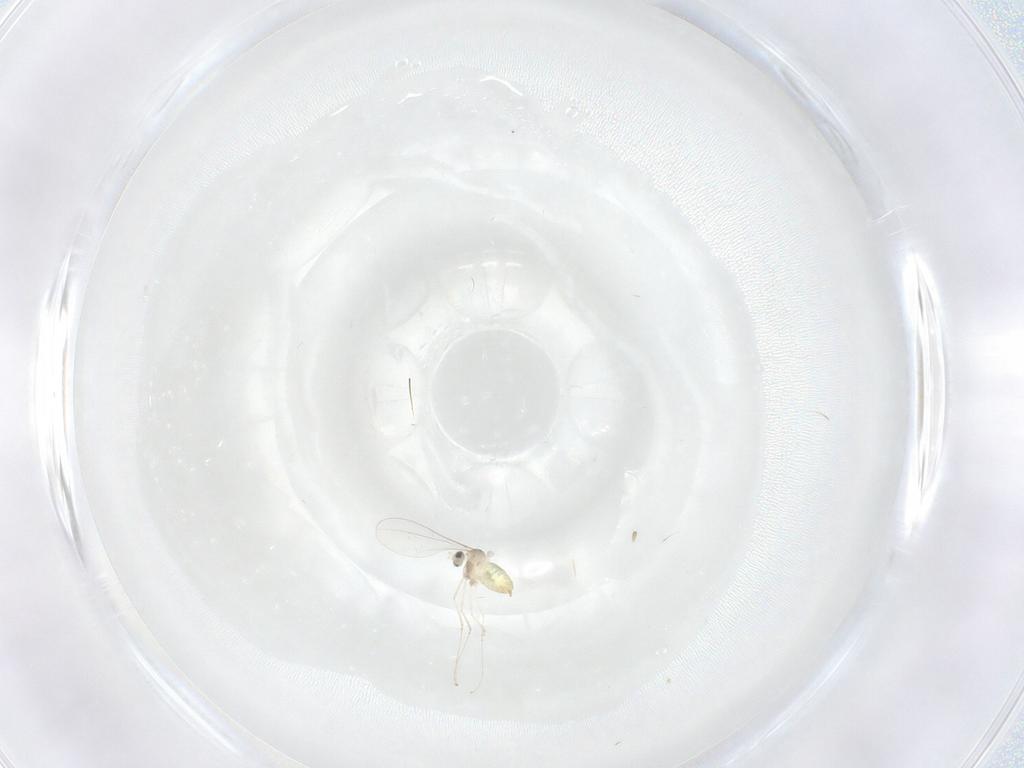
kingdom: Animalia
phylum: Arthropoda
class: Insecta
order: Diptera
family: Cecidomyiidae
